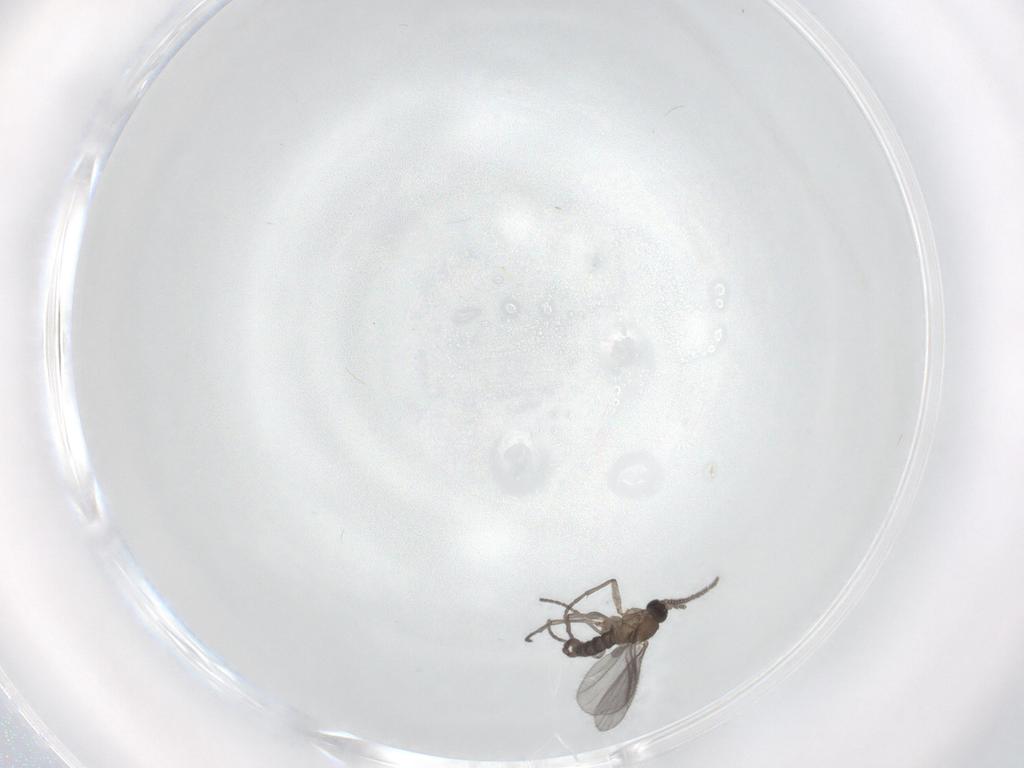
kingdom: Animalia
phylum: Arthropoda
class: Insecta
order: Diptera
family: Sciaridae
